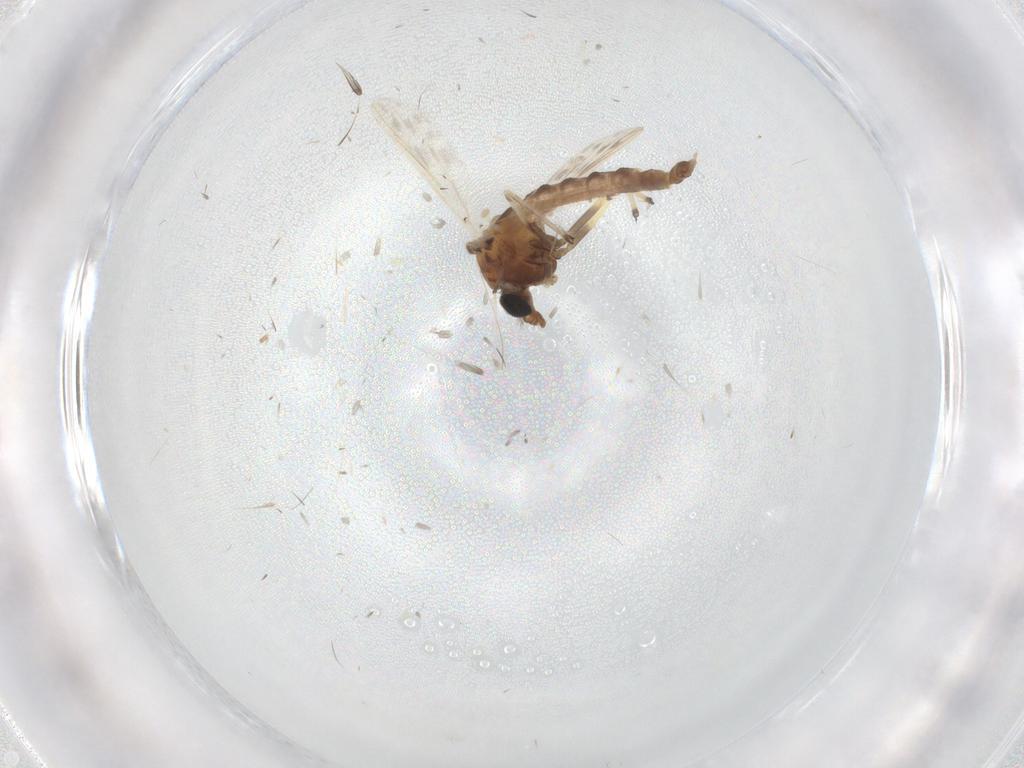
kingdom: Animalia
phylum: Arthropoda
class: Insecta
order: Diptera
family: Chironomidae
